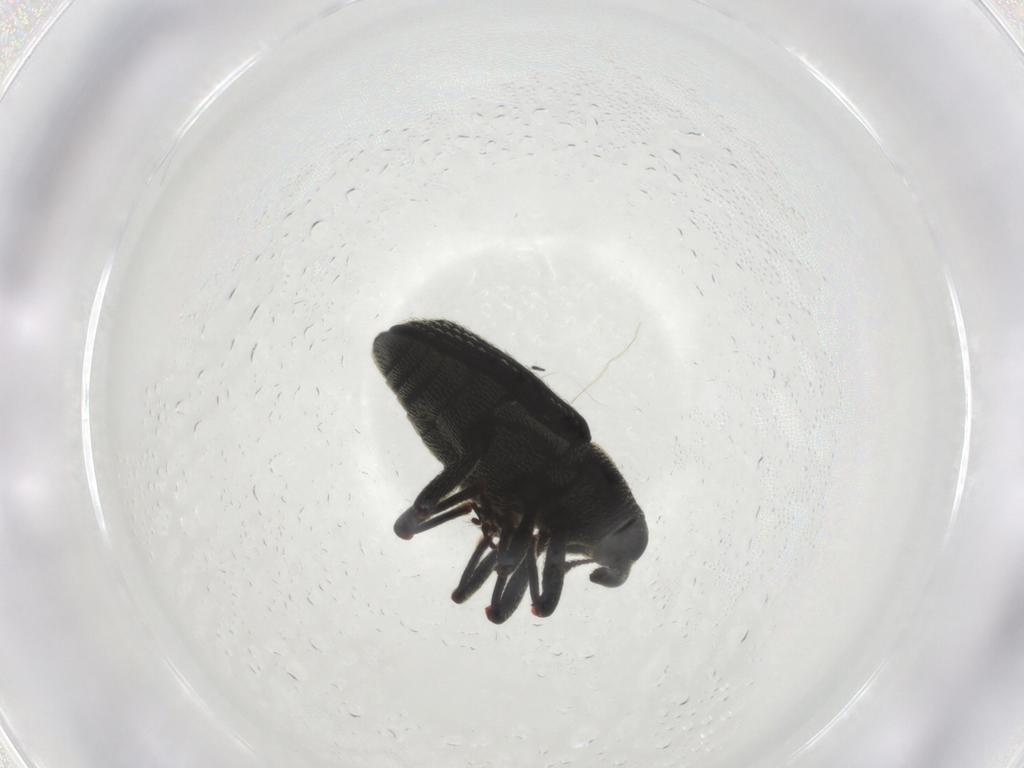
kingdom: Animalia
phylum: Arthropoda
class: Insecta
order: Coleoptera
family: Curculionidae
